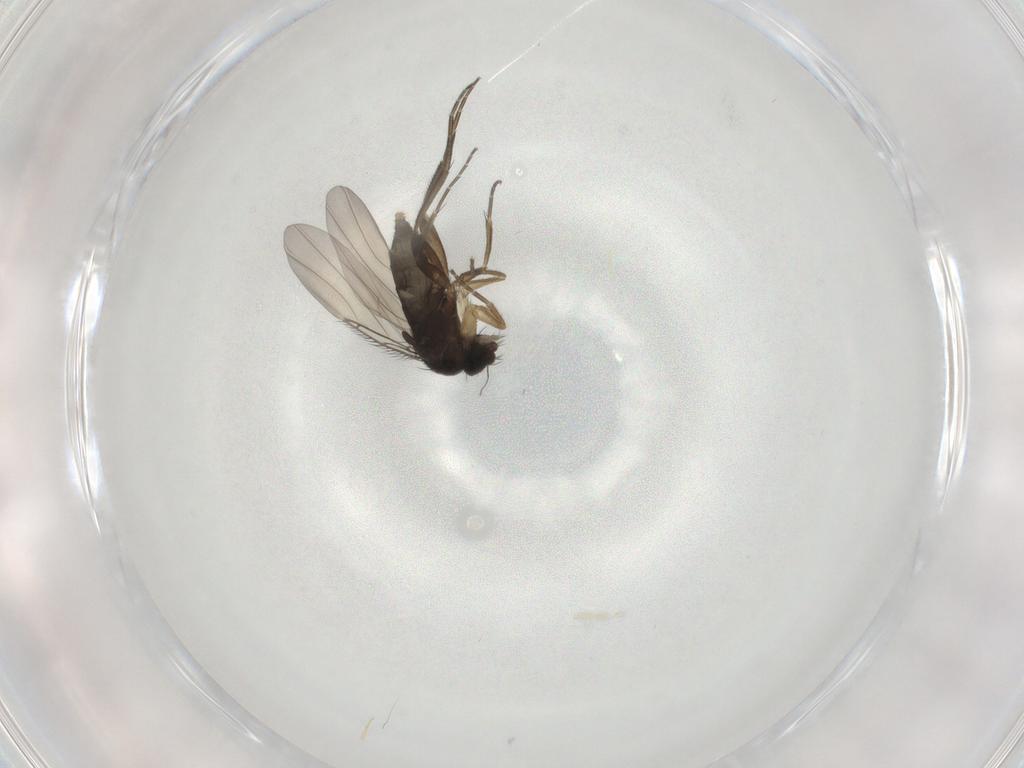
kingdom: Animalia
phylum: Arthropoda
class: Insecta
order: Diptera
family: Phoridae
